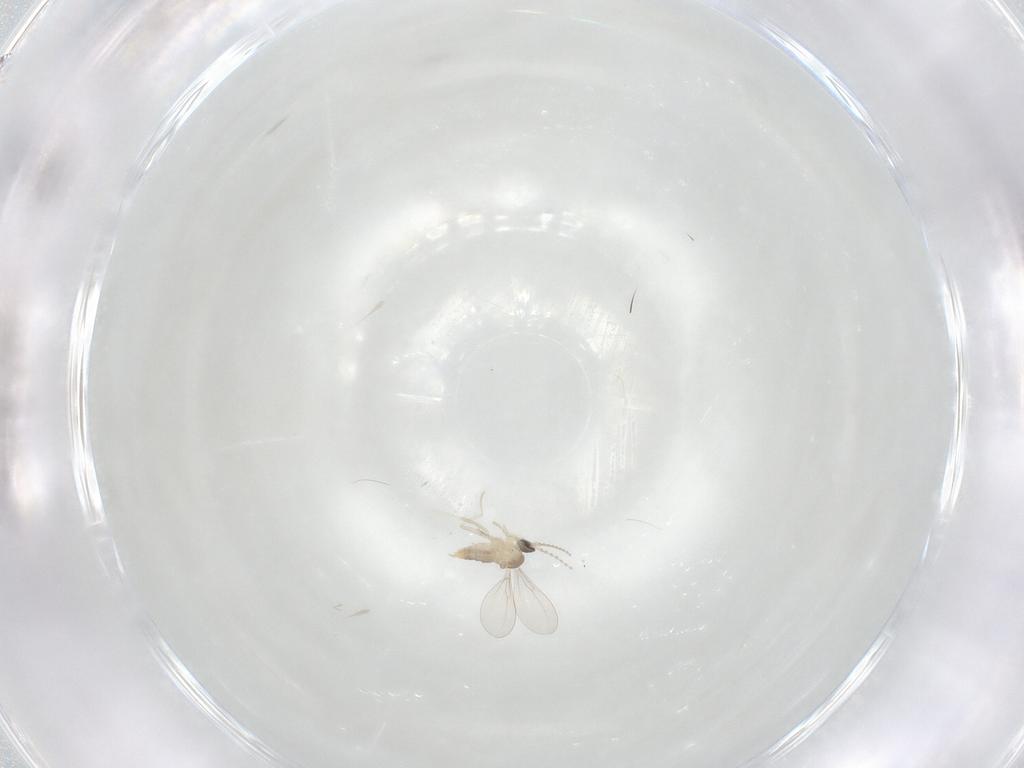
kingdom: Animalia
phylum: Arthropoda
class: Insecta
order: Diptera
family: Cecidomyiidae
